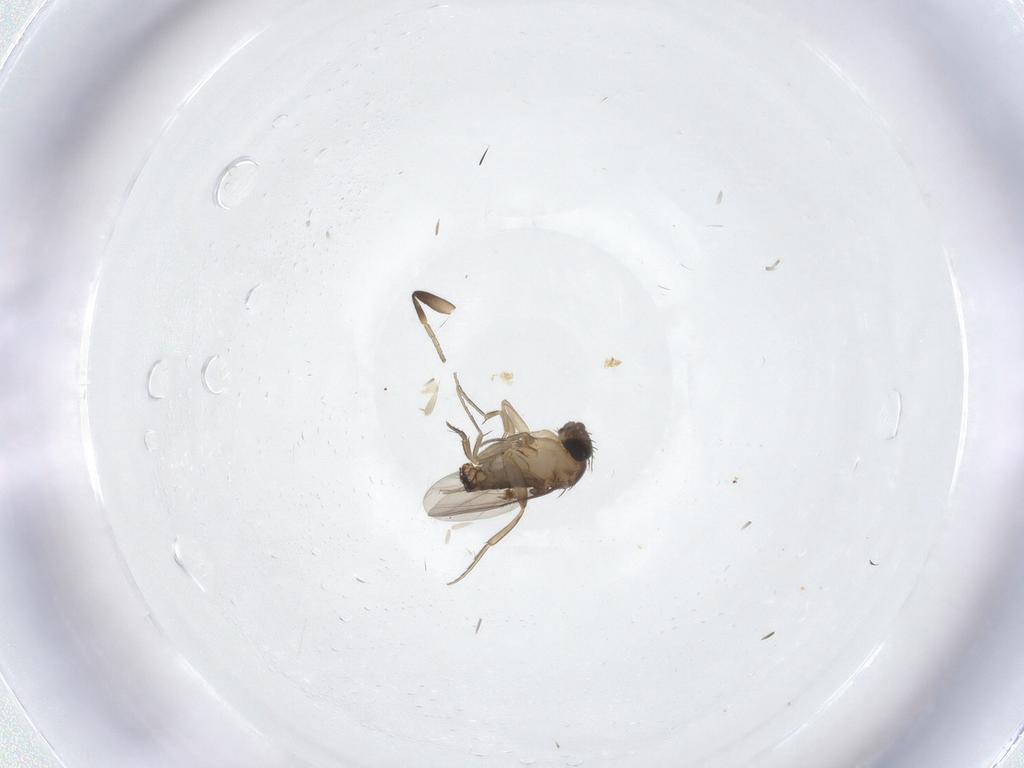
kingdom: Animalia
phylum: Arthropoda
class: Insecta
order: Diptera
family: Phoridae
